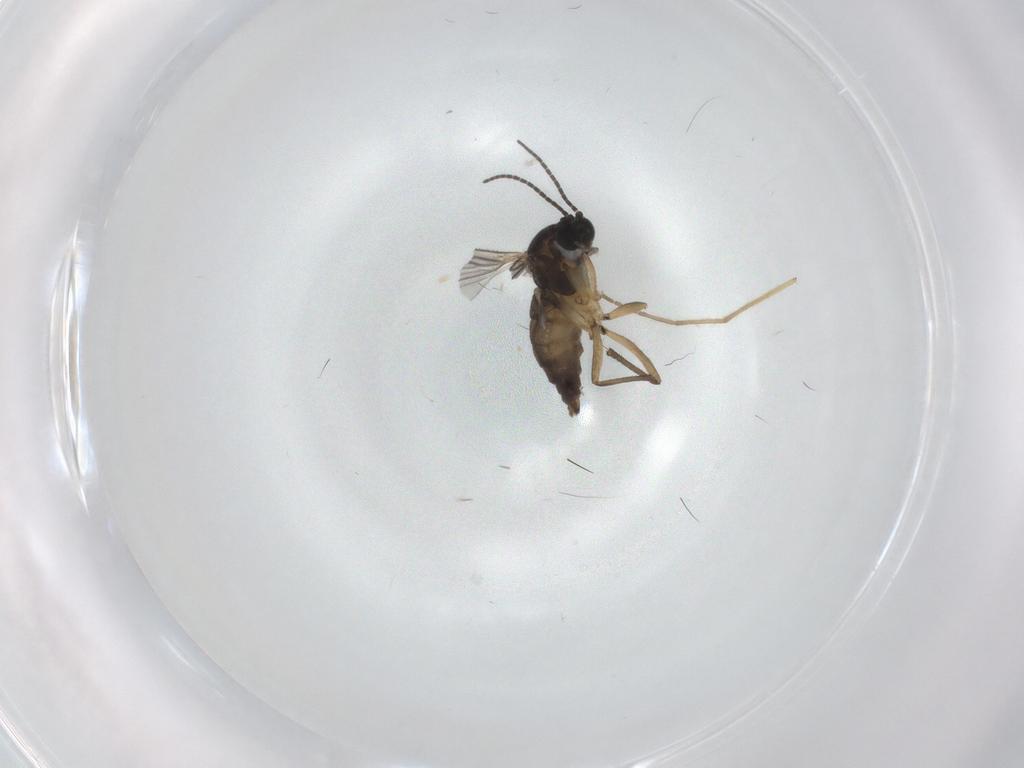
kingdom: Animalia
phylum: Arthropoda
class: Insecta
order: Diptera
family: Sciaridae
